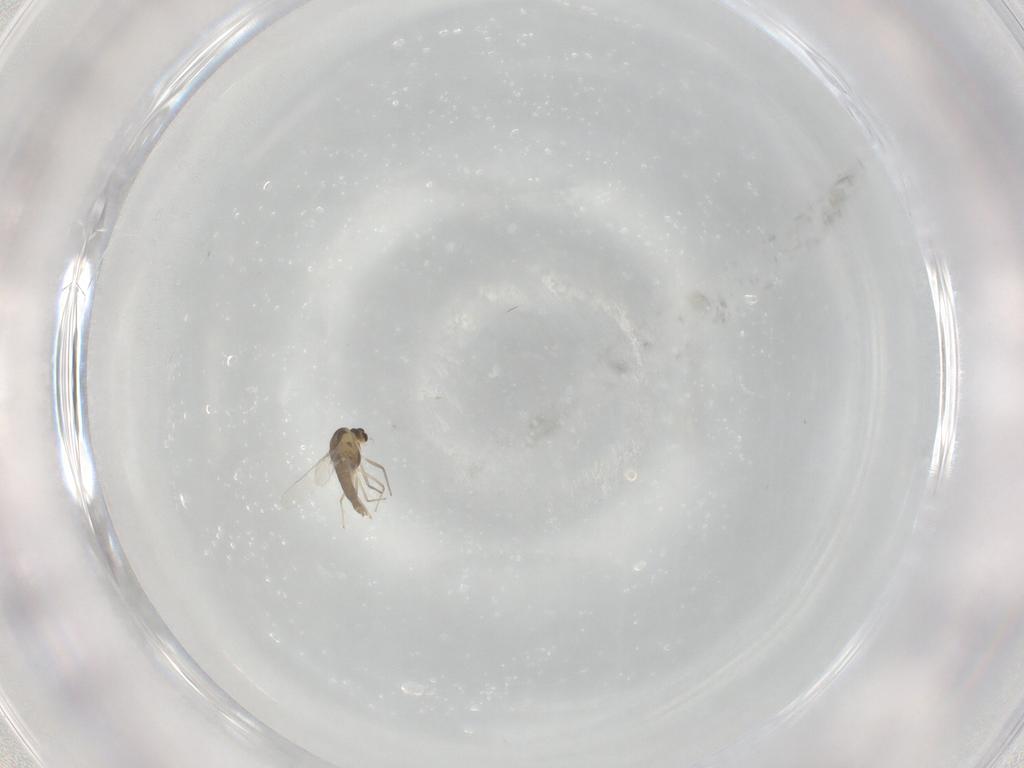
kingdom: Animalia
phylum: Arthropoda
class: Insecta
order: Diptera
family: Chironomidae
